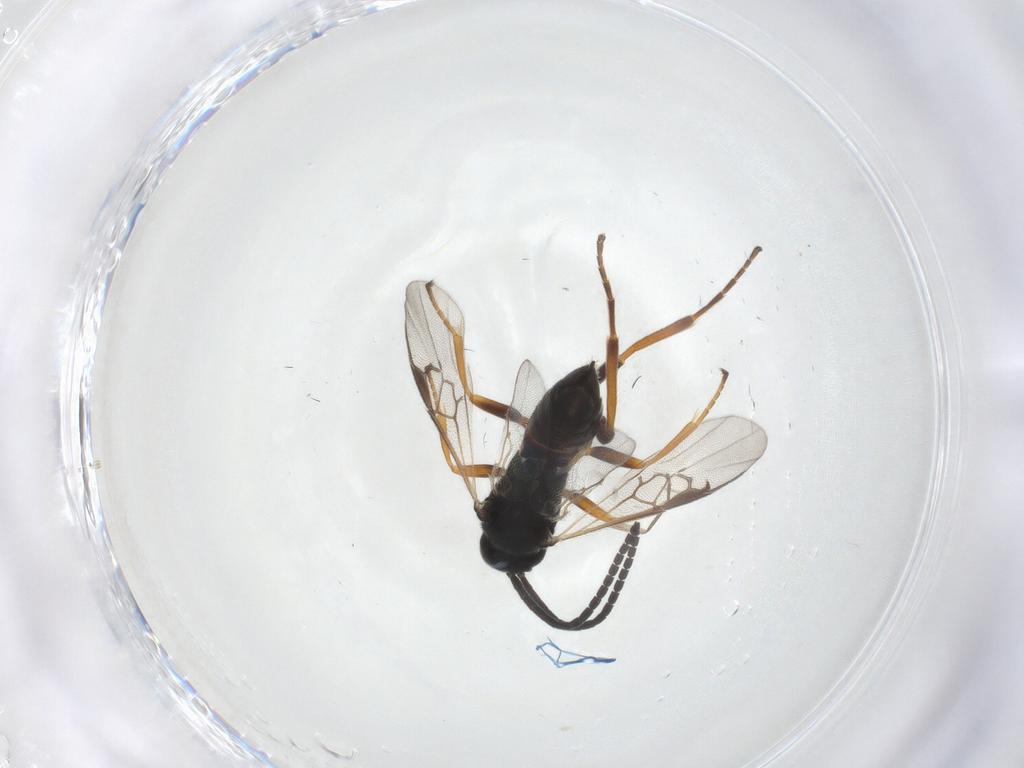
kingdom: Animalia
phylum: Arthropoda
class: Insecta
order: Hymenoptera
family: Braconidae
